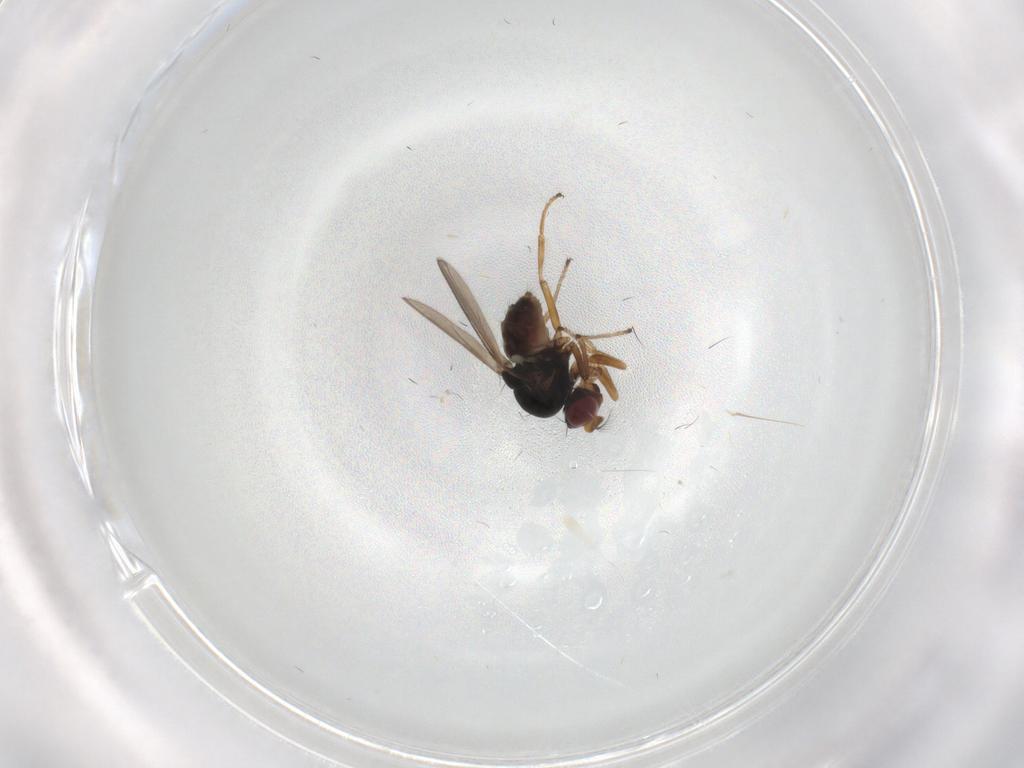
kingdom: Animalia
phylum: Arthropoda
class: Insecta
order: Diptera
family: Ephydridae
